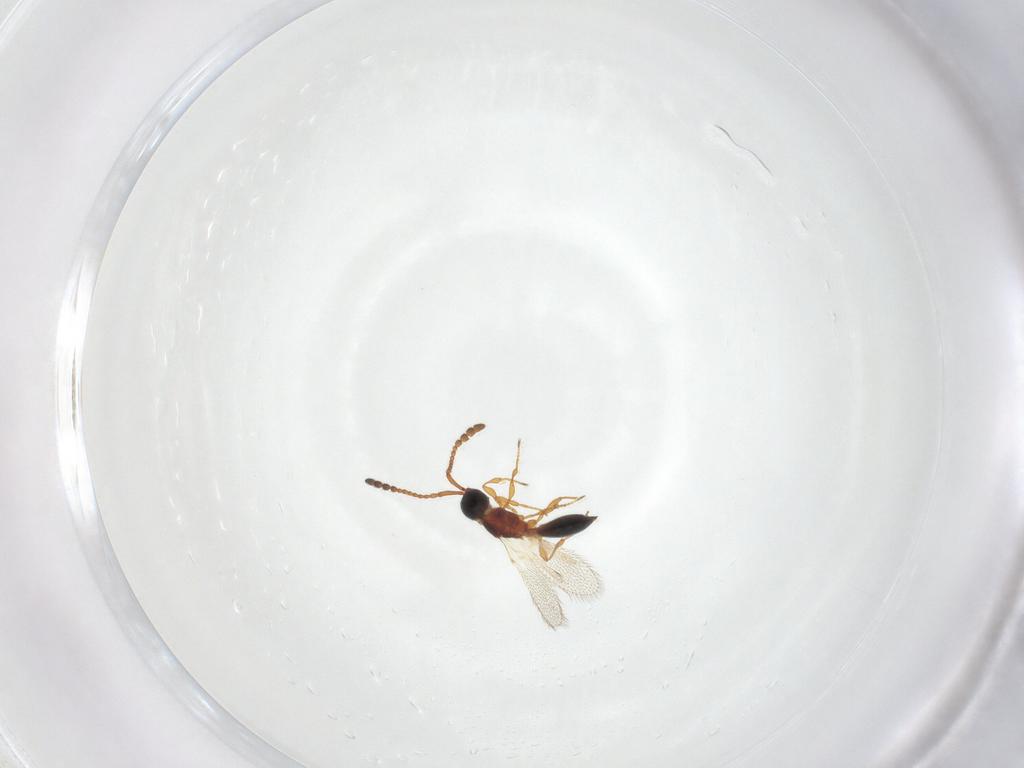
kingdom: Animalia
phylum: Arthropoda
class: Insecta
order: Hymenoptera
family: Diapriidae
